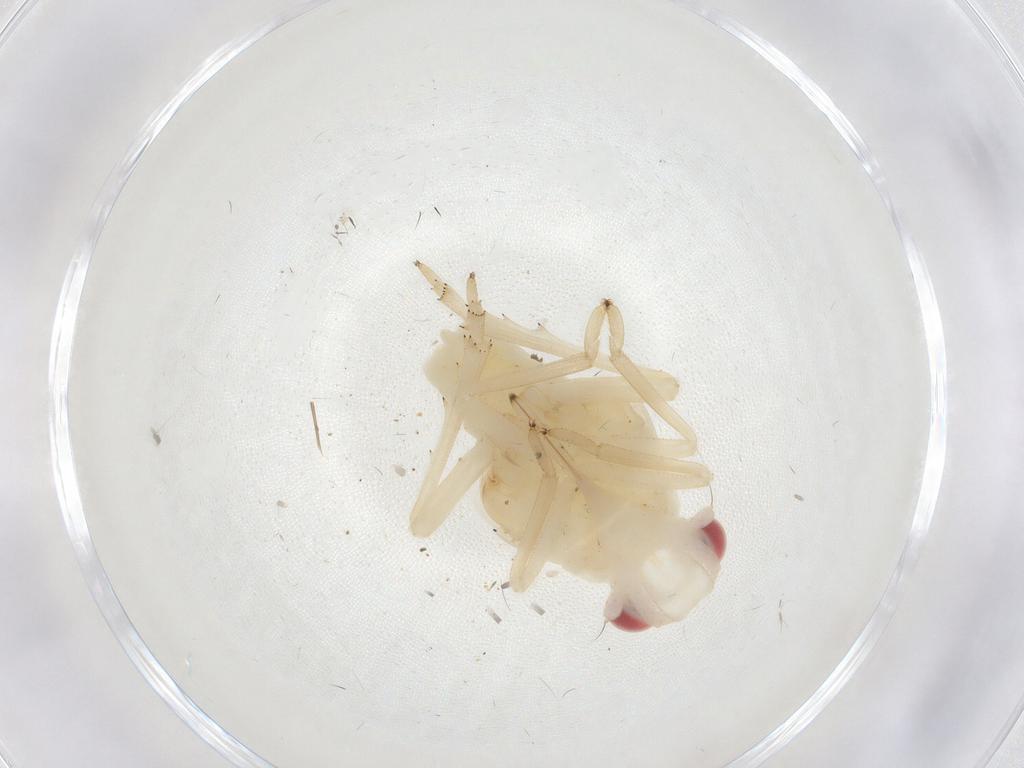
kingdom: Animalia
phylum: Arthropoda
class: Insecta
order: Hemiptera
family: Tropiduchidae
